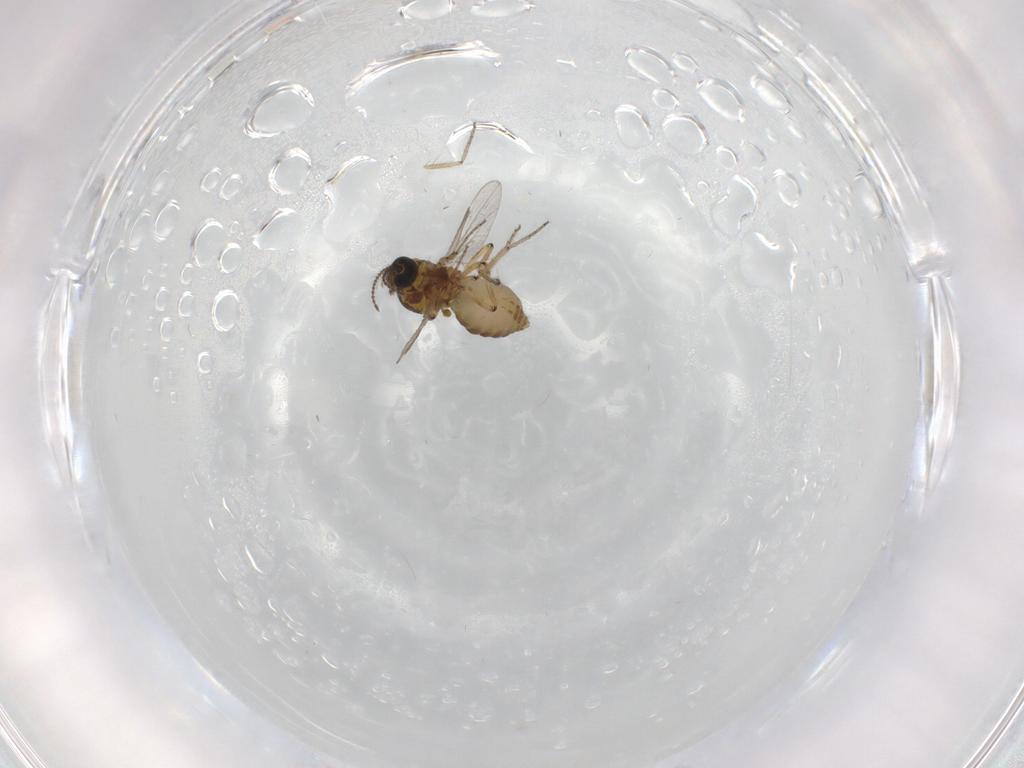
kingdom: Animalia
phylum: Arthropoda
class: Insecta
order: Diptera
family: Ceratopogonidae
